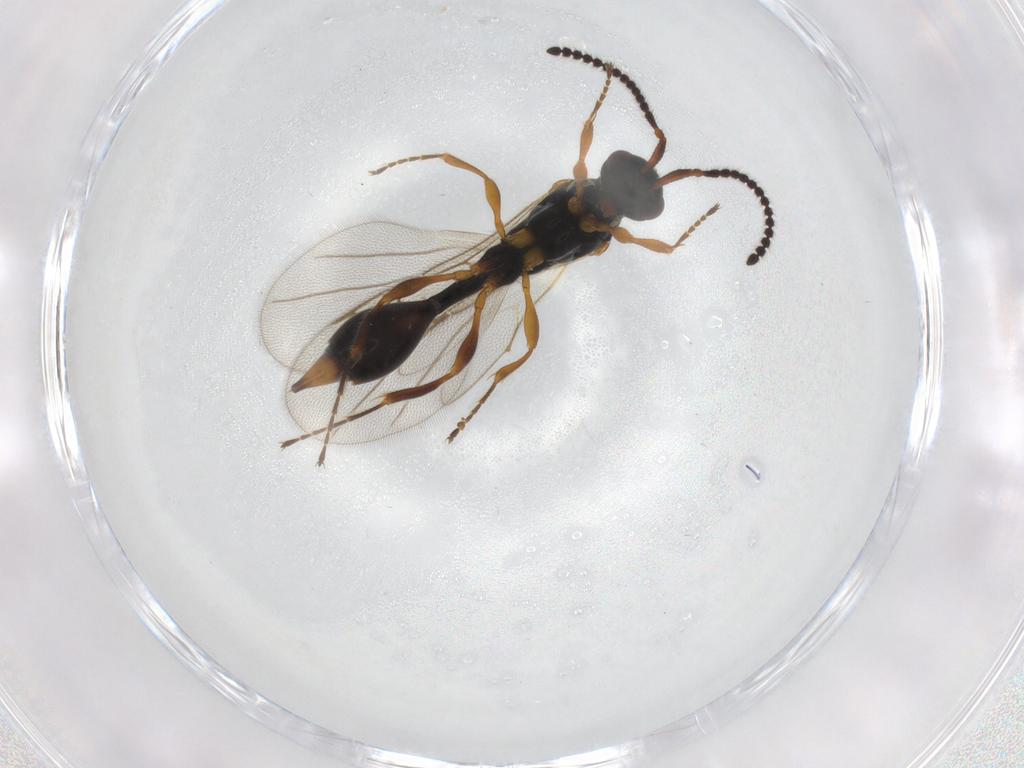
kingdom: Animalia
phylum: Arthropoda
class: Insecta
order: Hymenoptera
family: Diapriidae
